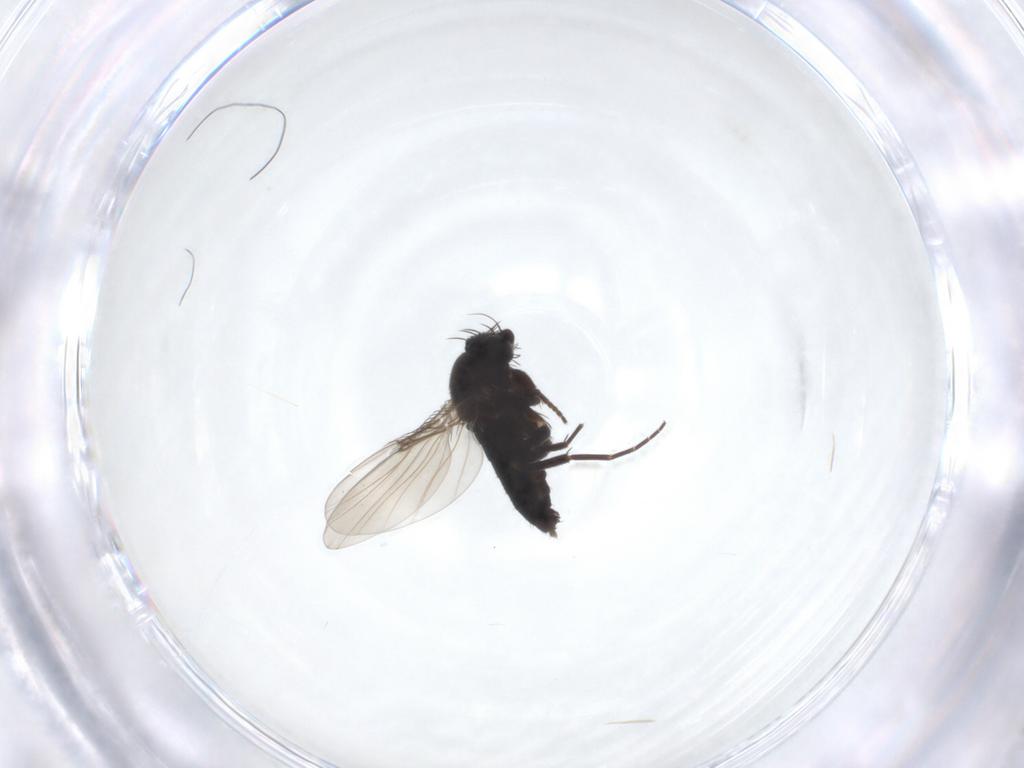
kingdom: Animalia
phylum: Arthropoda
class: Insecta
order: Diptera
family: Phoridae
